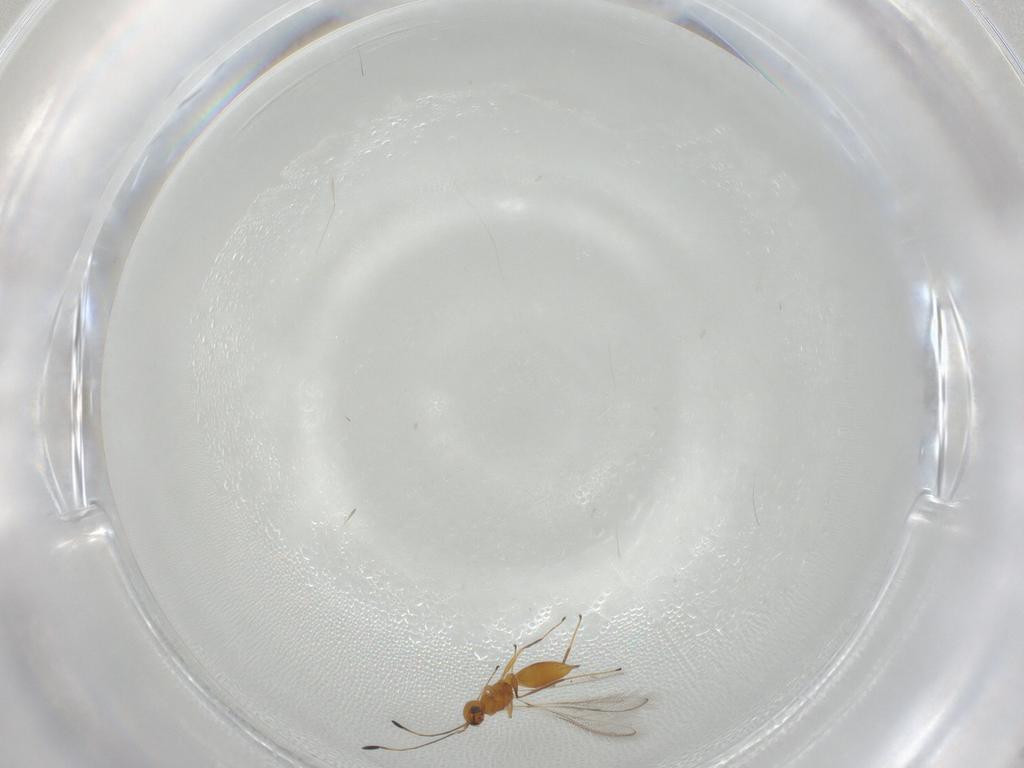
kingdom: Animalia
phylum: Arthropoda
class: Insecta
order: Hymenoptera
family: Mymaridae
